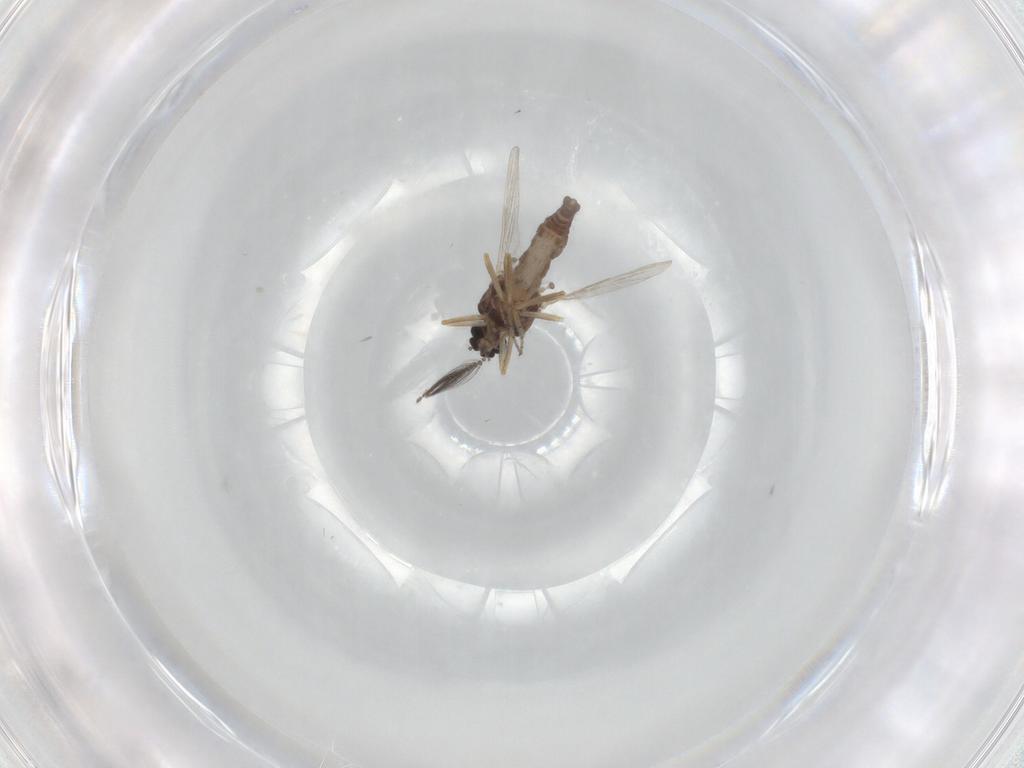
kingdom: Animalia
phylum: Arthropoda
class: Insecta
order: Diptera
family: Ceratopogonidae
